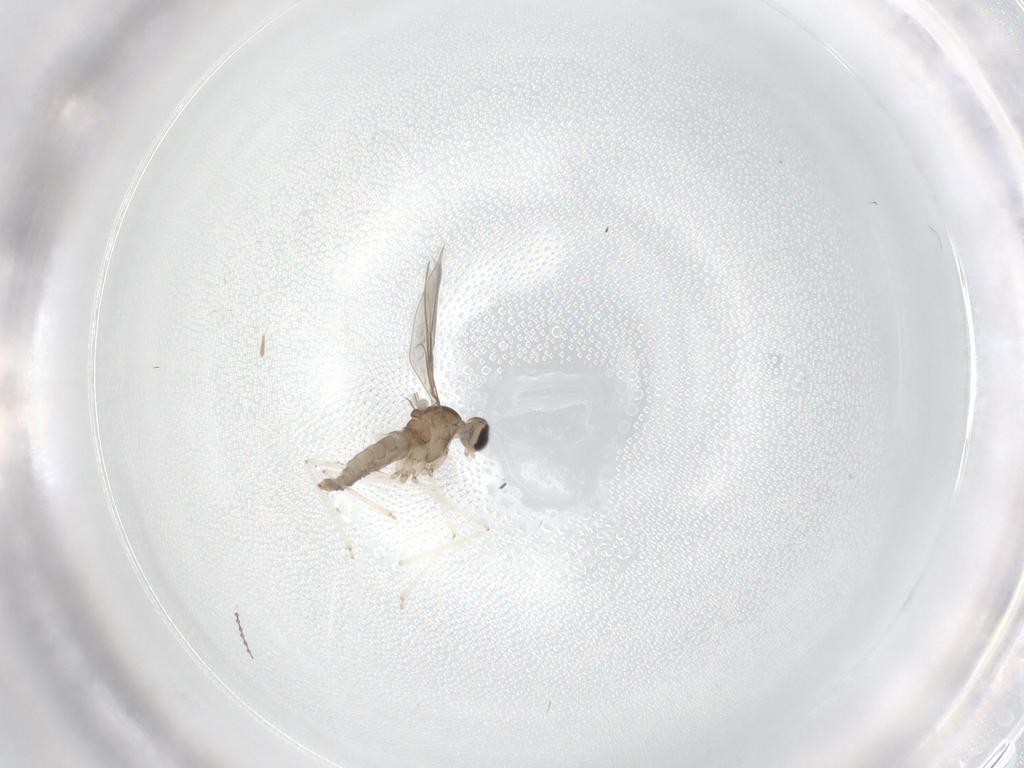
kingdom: Animalia
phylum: Arthropoda
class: Insecta
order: Diptera
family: Cecidomyiidae
